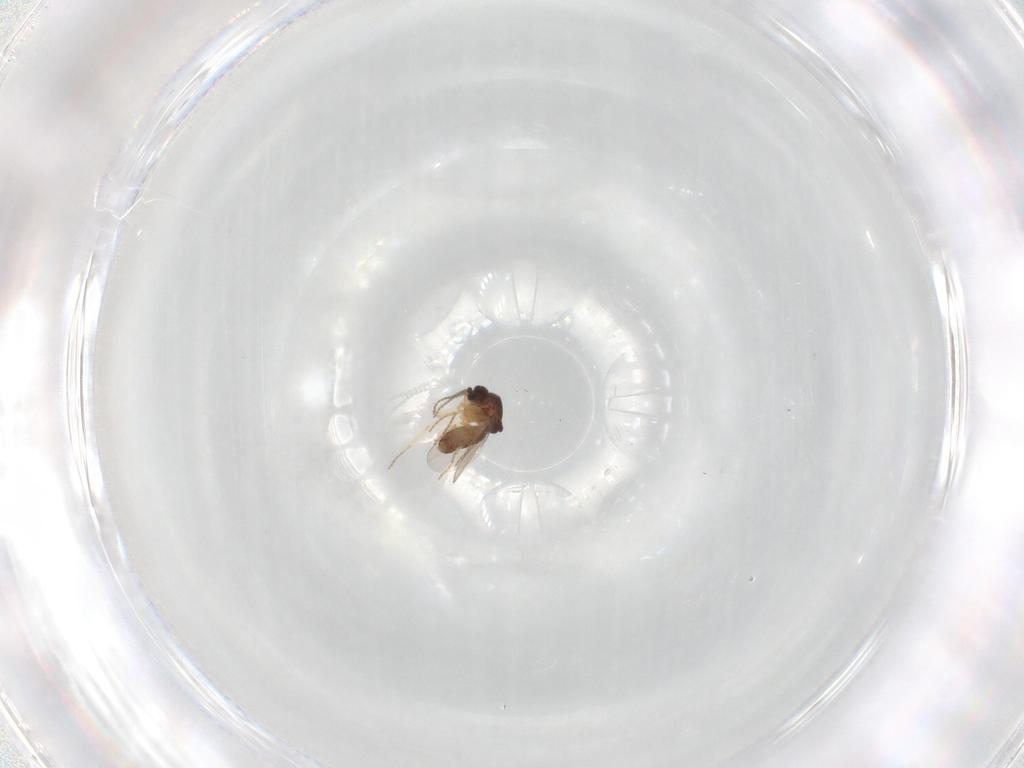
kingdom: Animalia
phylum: Arthropoda
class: Insecta
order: Diptera
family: Ceratopogonidae
